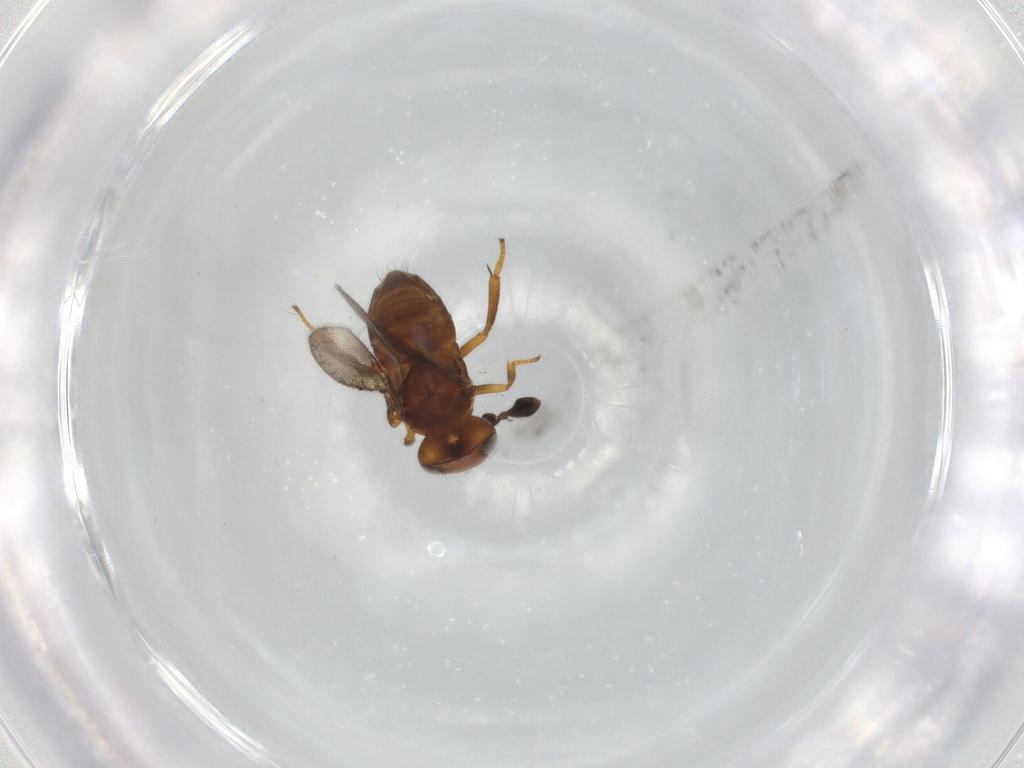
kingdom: Animalia
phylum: Arthropoda
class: Insecta
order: Hymenoptera
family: Encyrtidae
